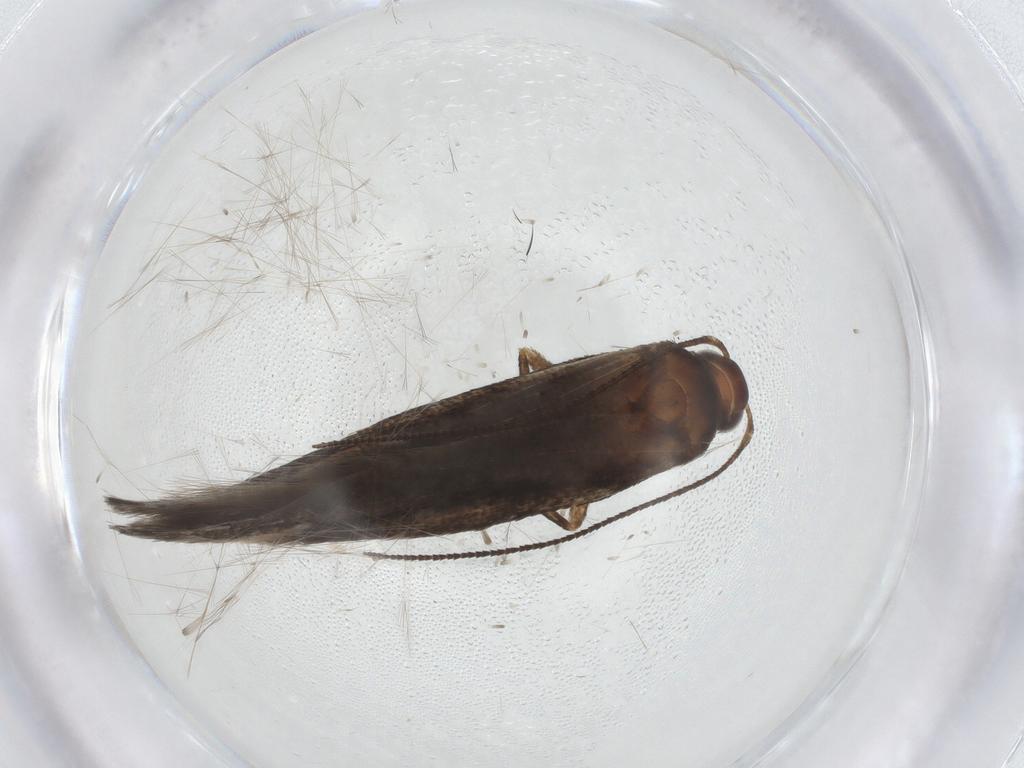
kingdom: Animalia
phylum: Arthropoda
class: Insecta
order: Lepidoptera
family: Gelechiidae
